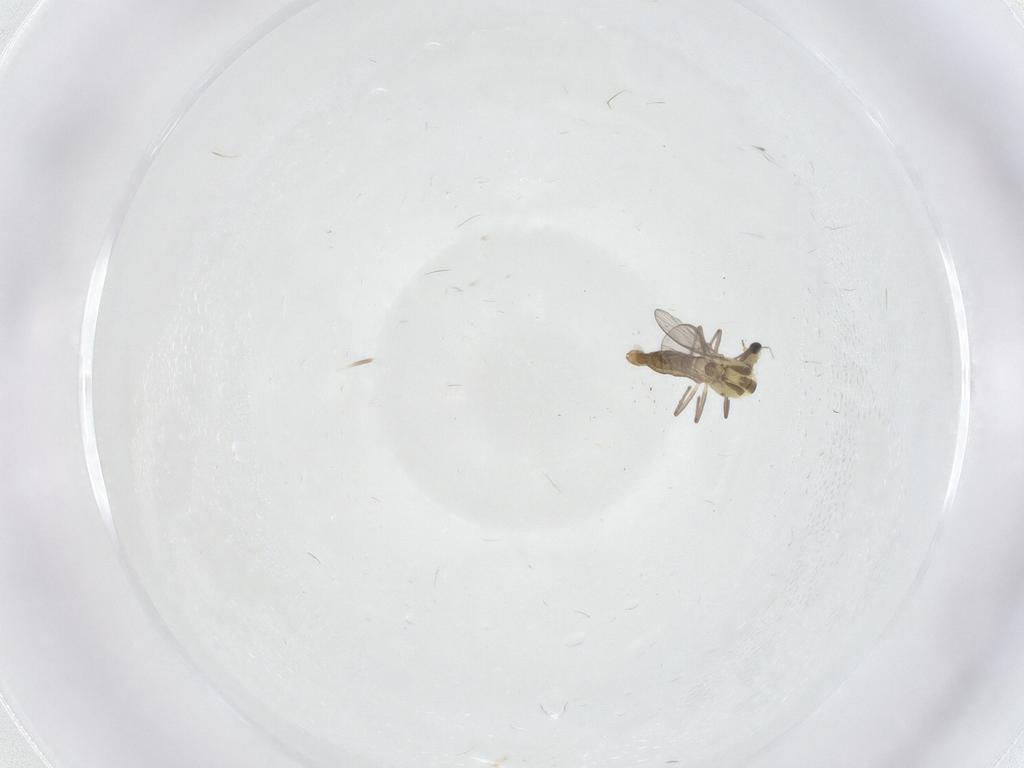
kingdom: Animalia
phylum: Arthropoda
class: Insecta
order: Diptera
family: Chironomidae
